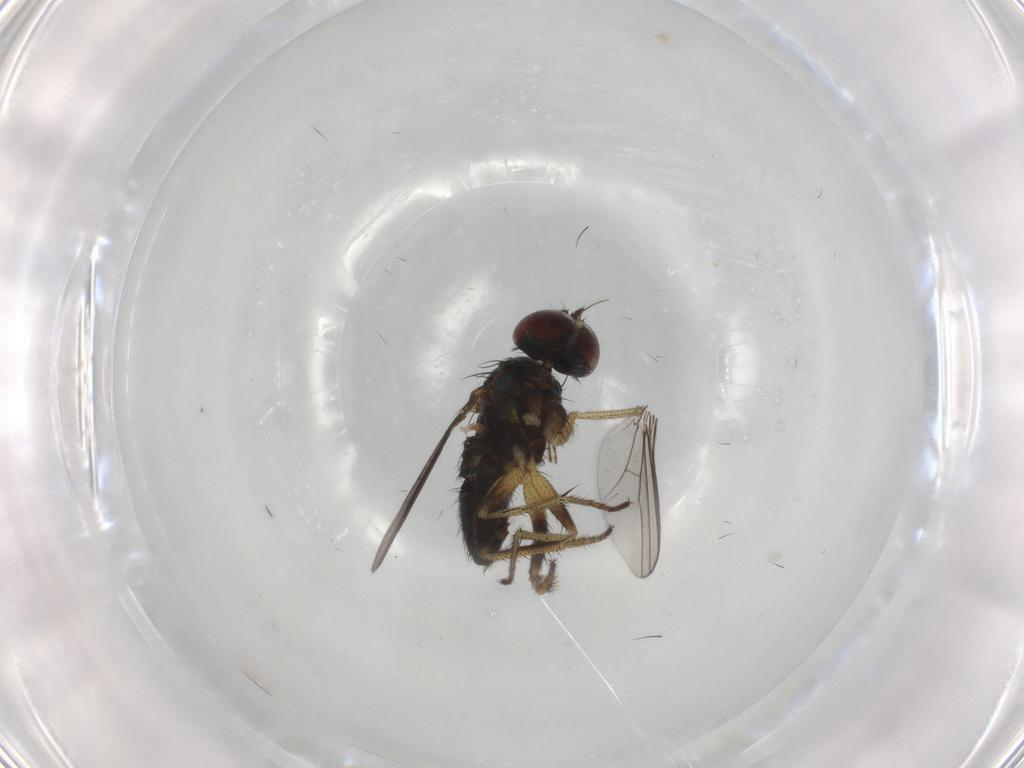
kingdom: Animalia
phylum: Arthropoda
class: Insecta
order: Diptera
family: Dolichopodidae
